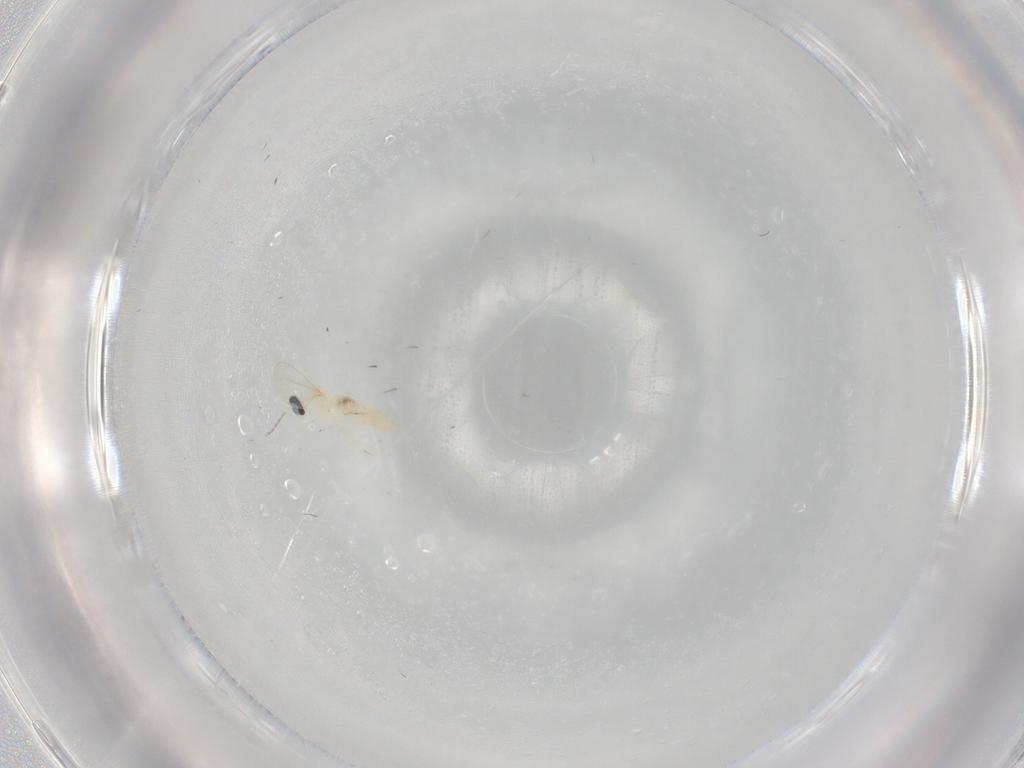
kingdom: Animalia
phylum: Arthropoda
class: Insecta
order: Diptera
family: Cecidomyiidae
